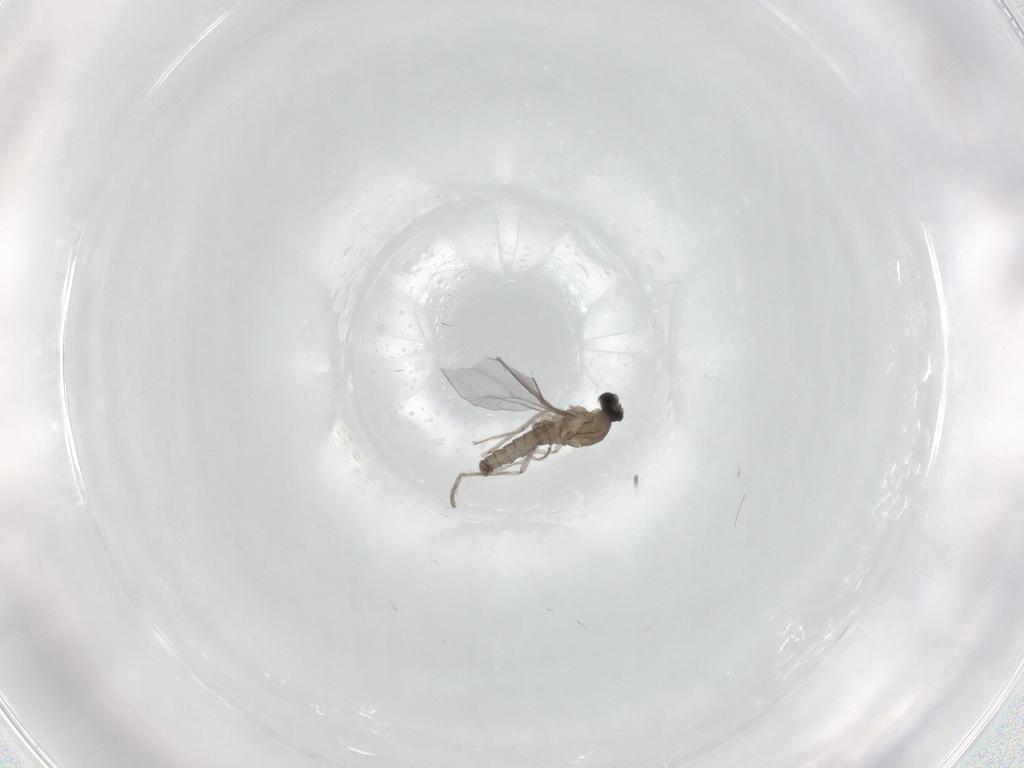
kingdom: Animalia
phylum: Arthropoda
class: Insecta
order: Diptera
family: Cecidomyiidae
